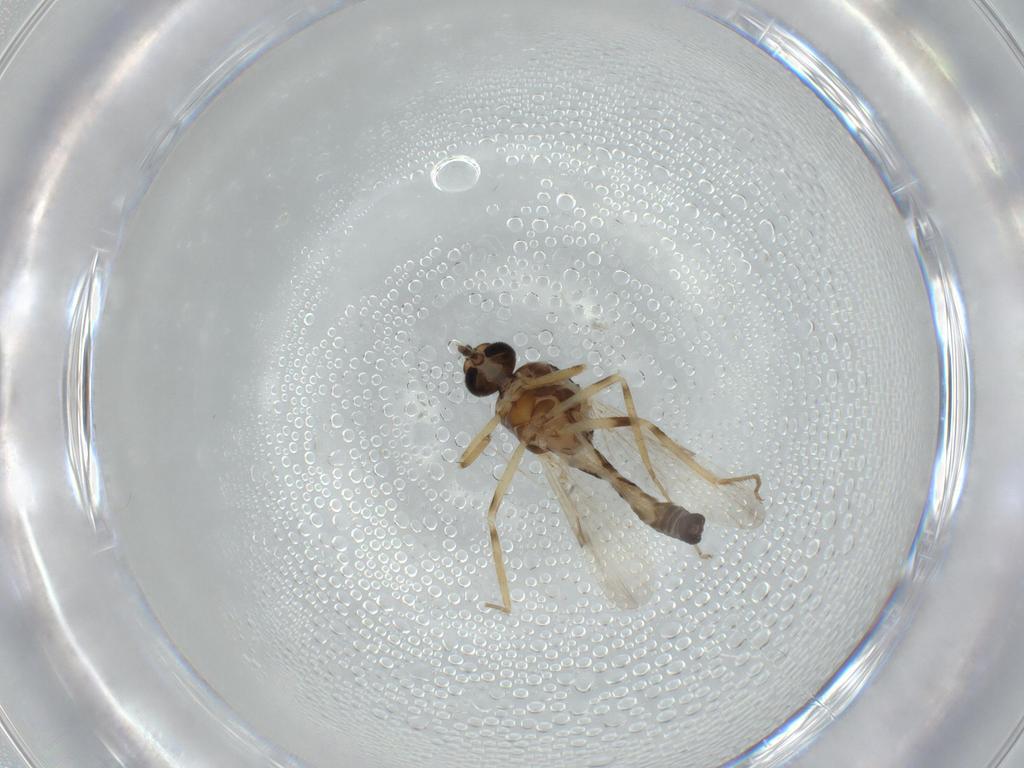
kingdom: Animalia
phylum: Arthropoda
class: Insecta
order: Diptera
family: Ceratopogonidae
